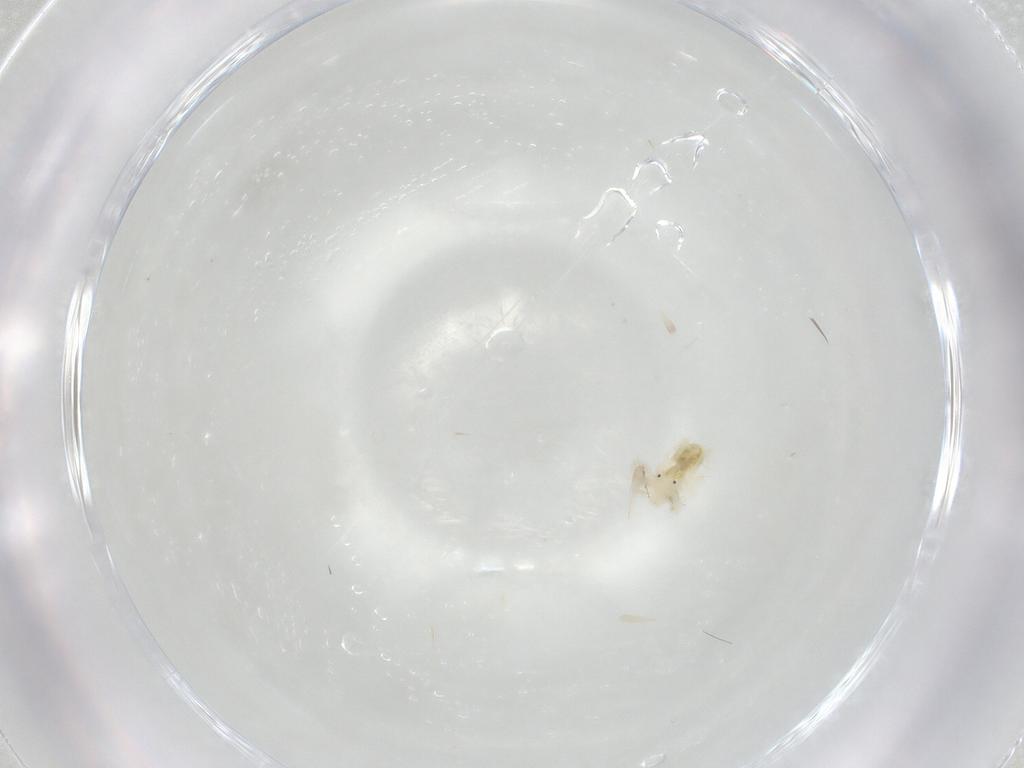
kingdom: Animalia
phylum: Arthropoda
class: Arachnida
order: Trombidiformes
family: Anystidae
